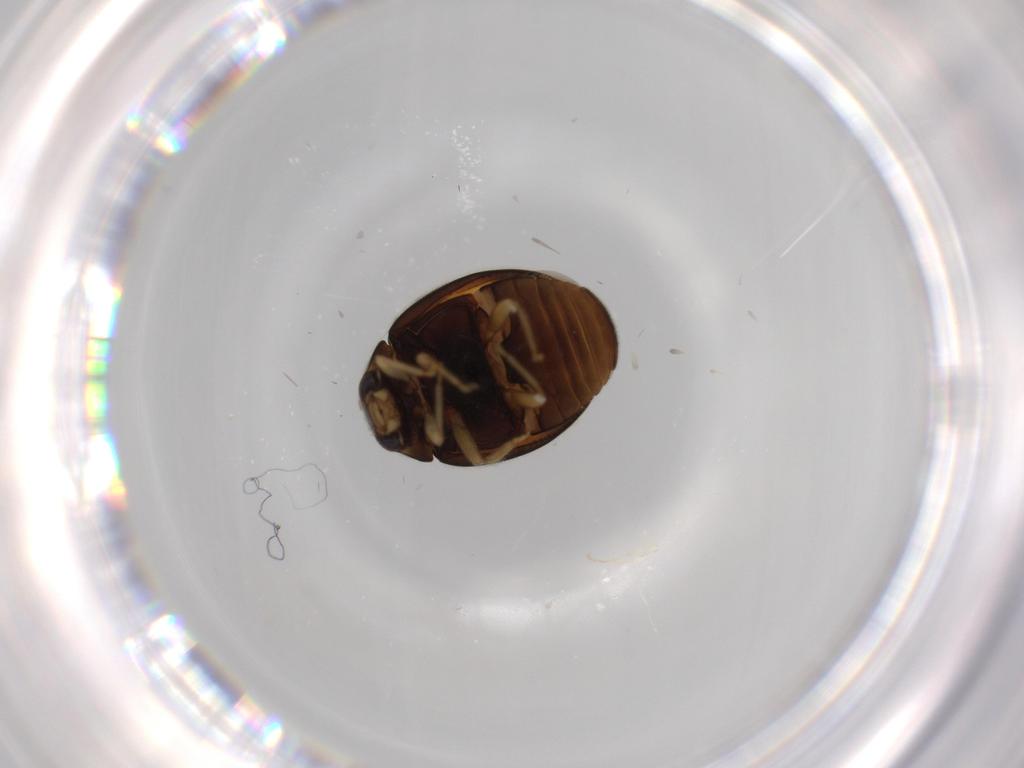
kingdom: Animalia
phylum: Arthropoda
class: Insecta
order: Coleoptera
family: Coccinellidae
